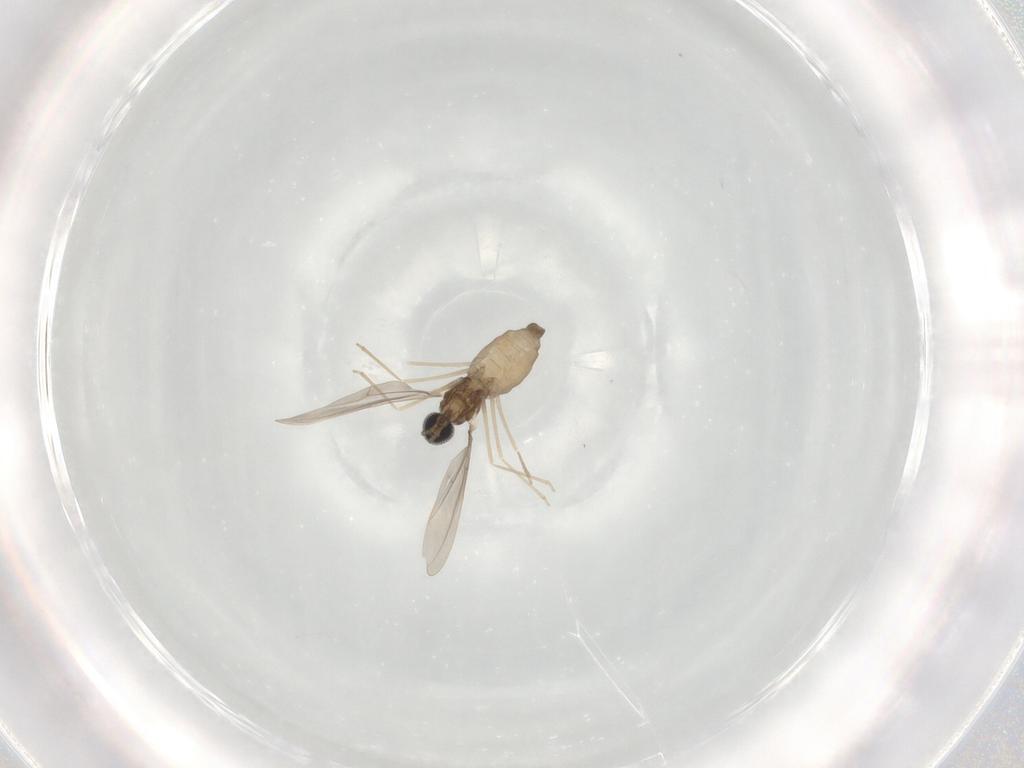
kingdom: Animalia
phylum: Arthropoda
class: Insecta
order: Diptera
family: Cecidomyiidae
